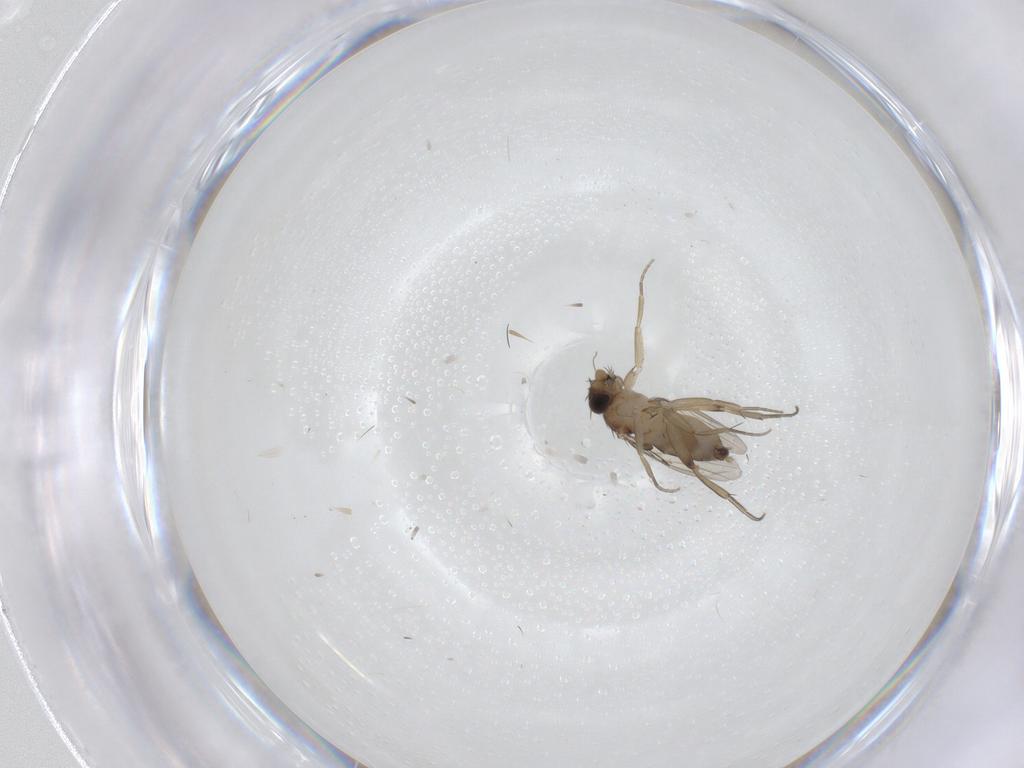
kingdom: Animalia
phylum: Arthropoda
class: Insecta
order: Diptera
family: Phoridae
